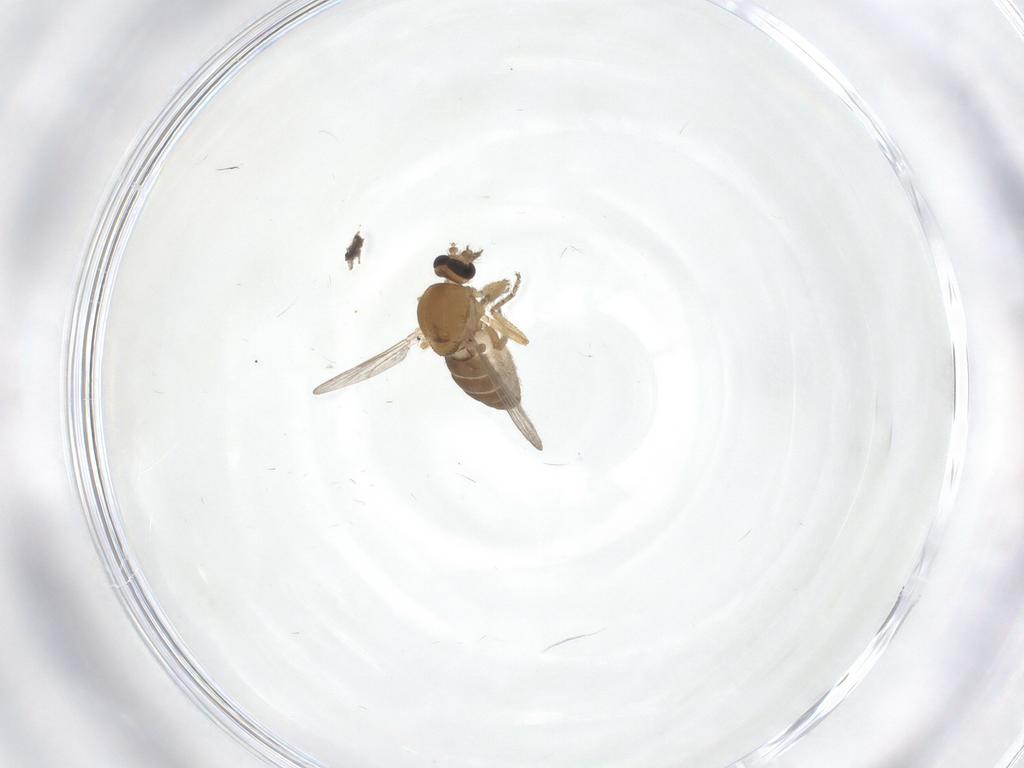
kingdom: Animalia
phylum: Arthropoda
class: Insecta
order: Diptera
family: Ceratopogonidae
